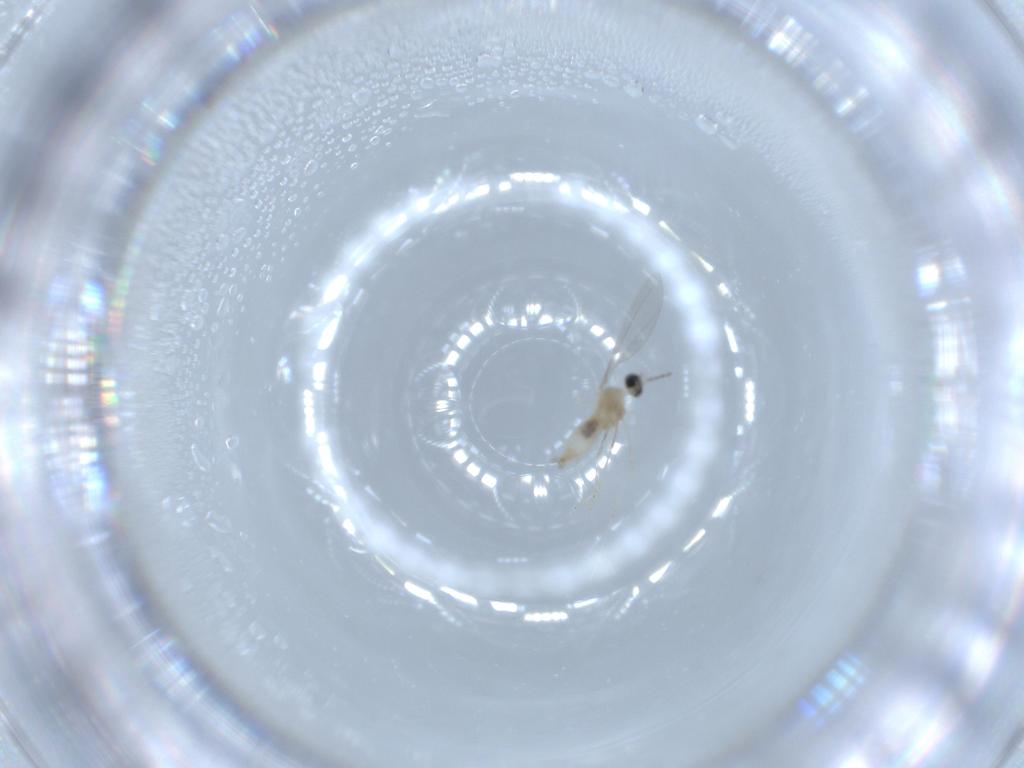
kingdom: Animalia
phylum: Arthropoda
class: Insecta
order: Diptera
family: Cecidomyiidae
